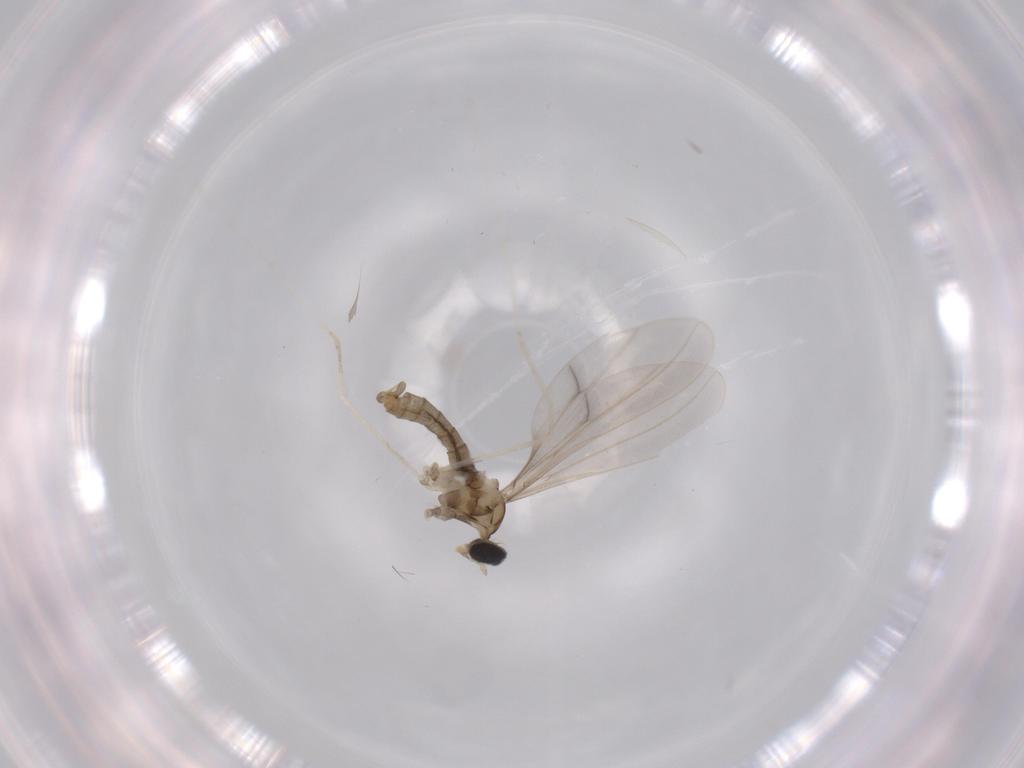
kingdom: Animalia
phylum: Arthropoda
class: Insecta
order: Diptera
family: Cecidomyiidae
